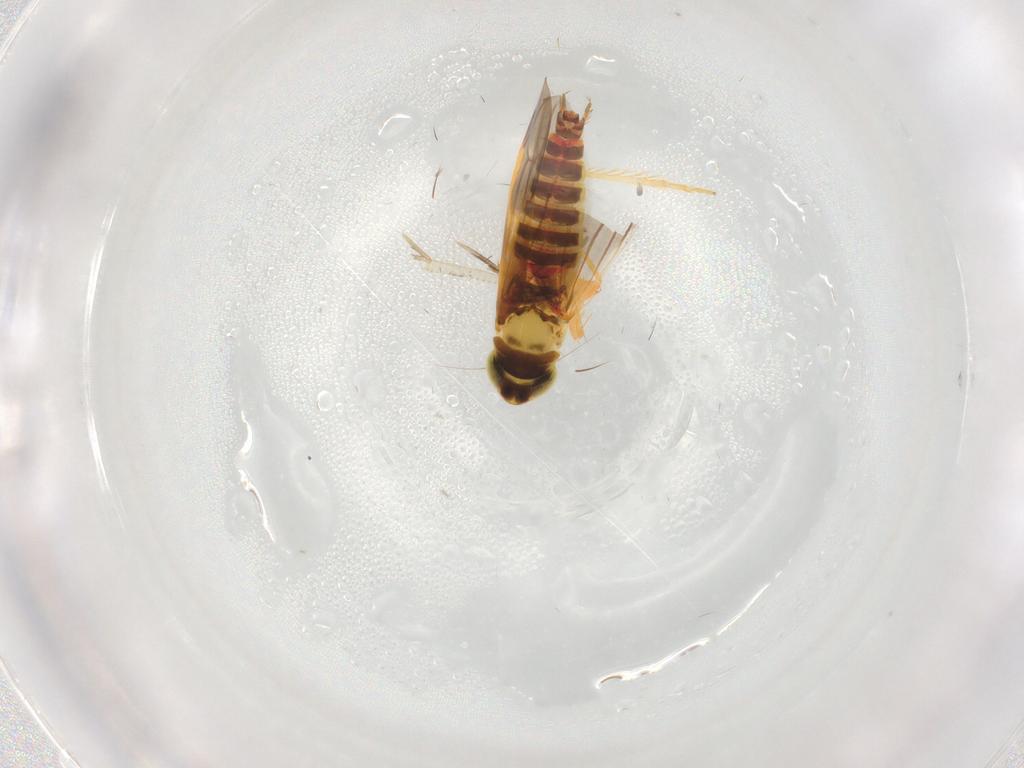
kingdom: Animalia
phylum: Arthropoda
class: Insecta
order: Hemiptera
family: Cicadellidae
